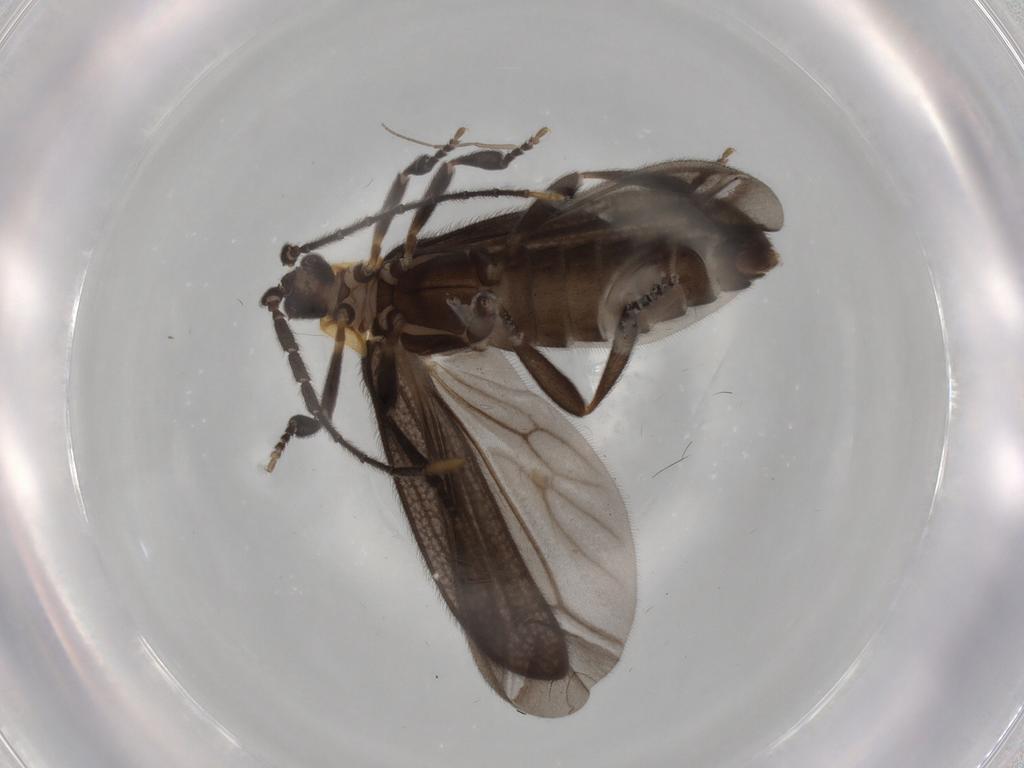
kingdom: Animalia
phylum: Arthropoda
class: Insecta
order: Coleoptera
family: Lycidae
